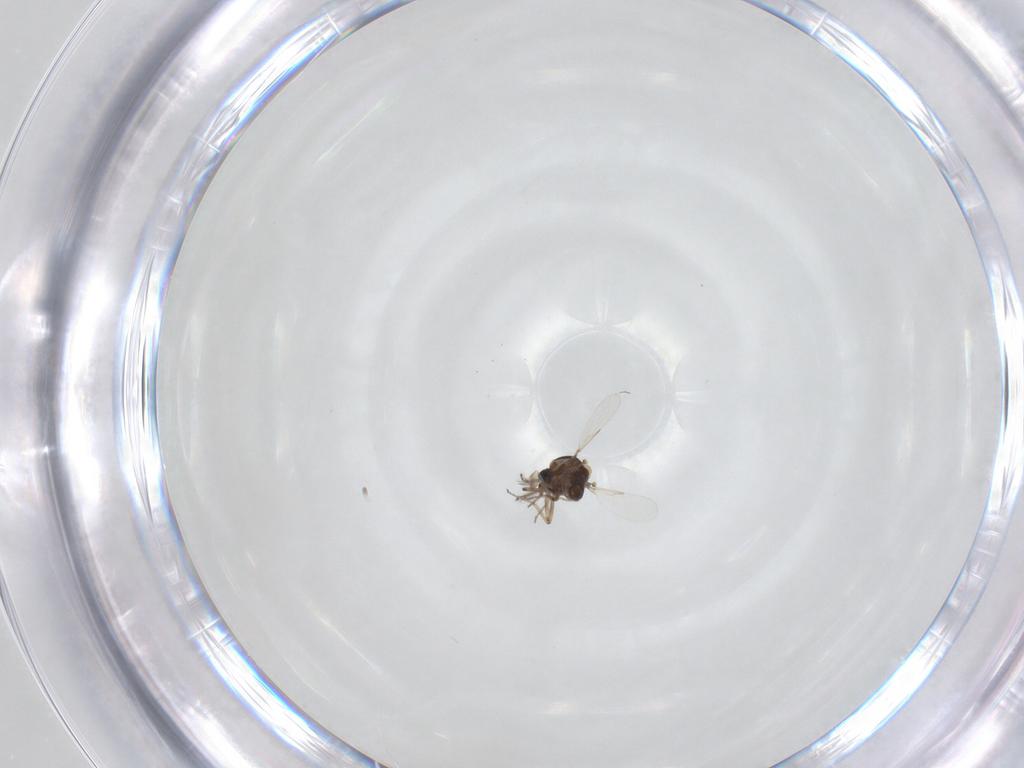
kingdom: Animalia
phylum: Arthropoda
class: Insecta
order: Diptera
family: Ceratopogonidae
